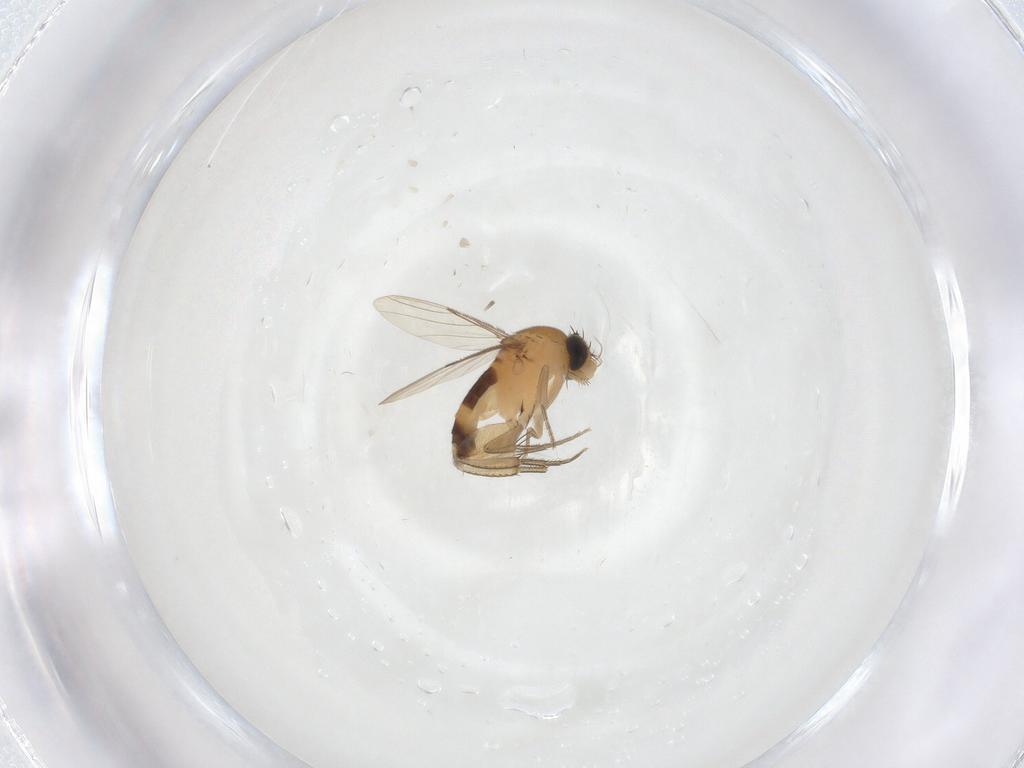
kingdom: Animalia
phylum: Arthropoda
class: Insecta
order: Diptera
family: Phoridae
